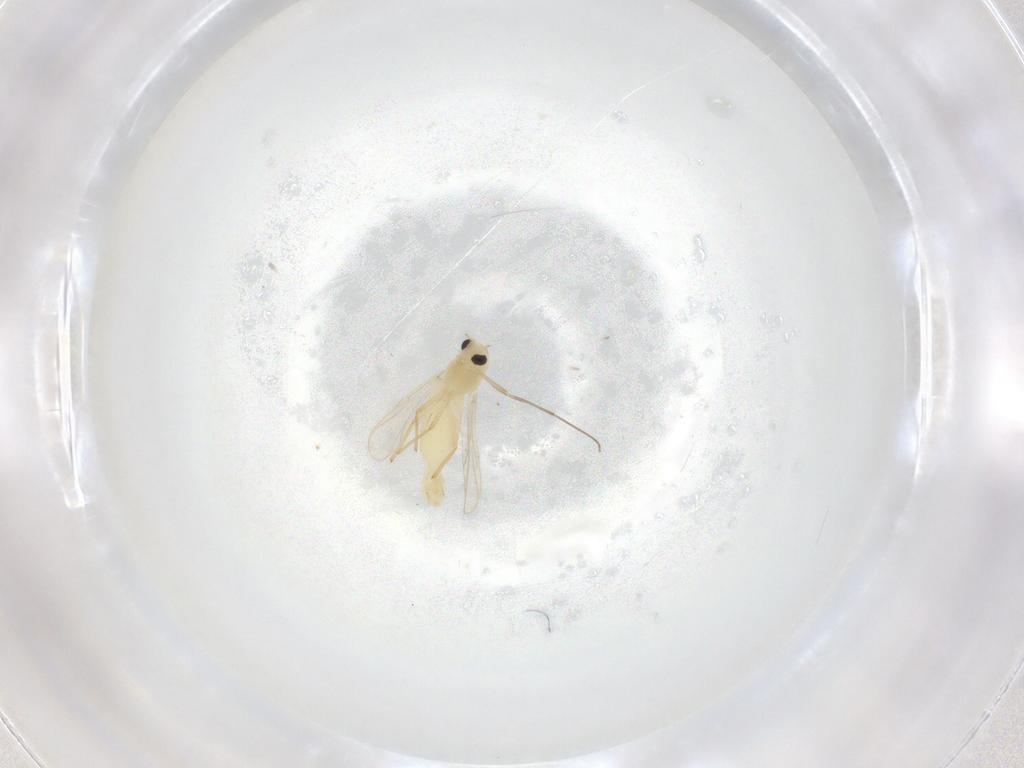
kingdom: Animalia
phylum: Arthropoda
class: Insecta
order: Diptera
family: Chironomidae
